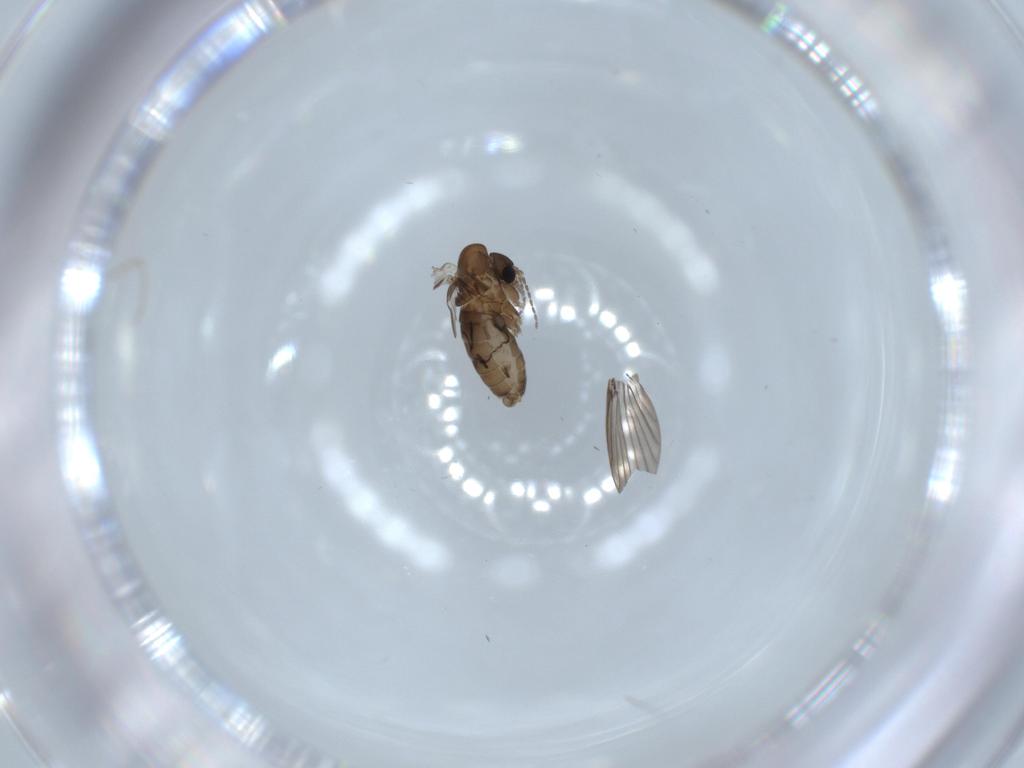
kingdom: Animalia
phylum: Arthropoda
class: Insecta
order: Diptera
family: Psychodidae
